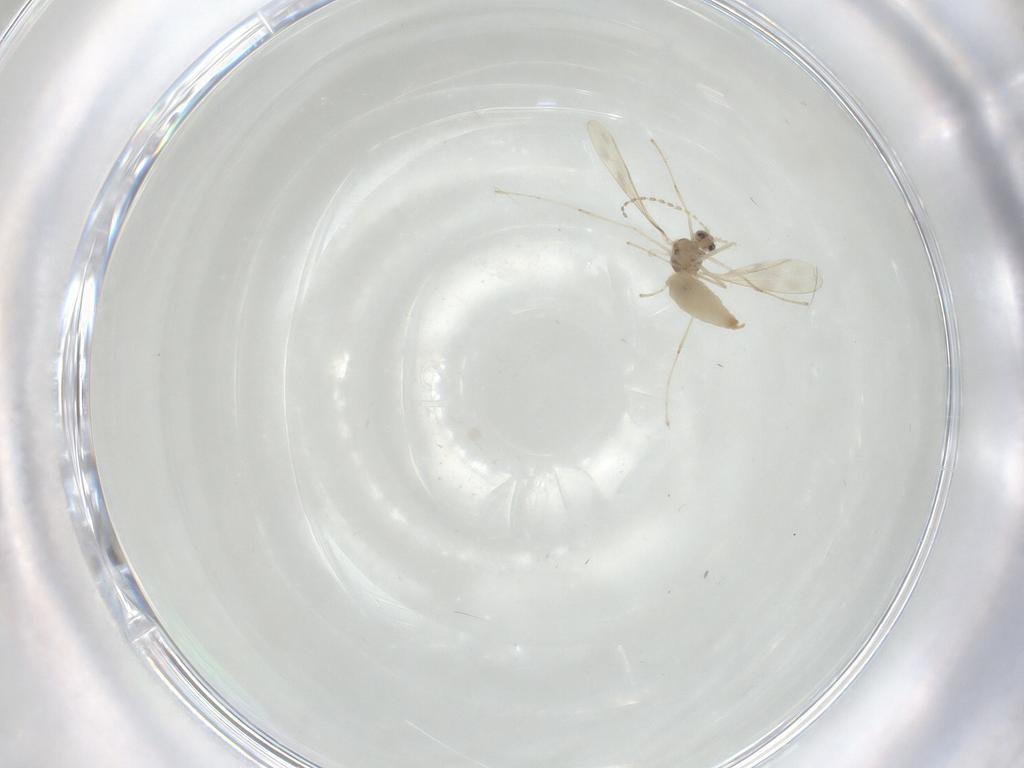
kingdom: Animalia
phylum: Arthropoda
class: Insecta
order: Diptera
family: Cecidomyiidae
